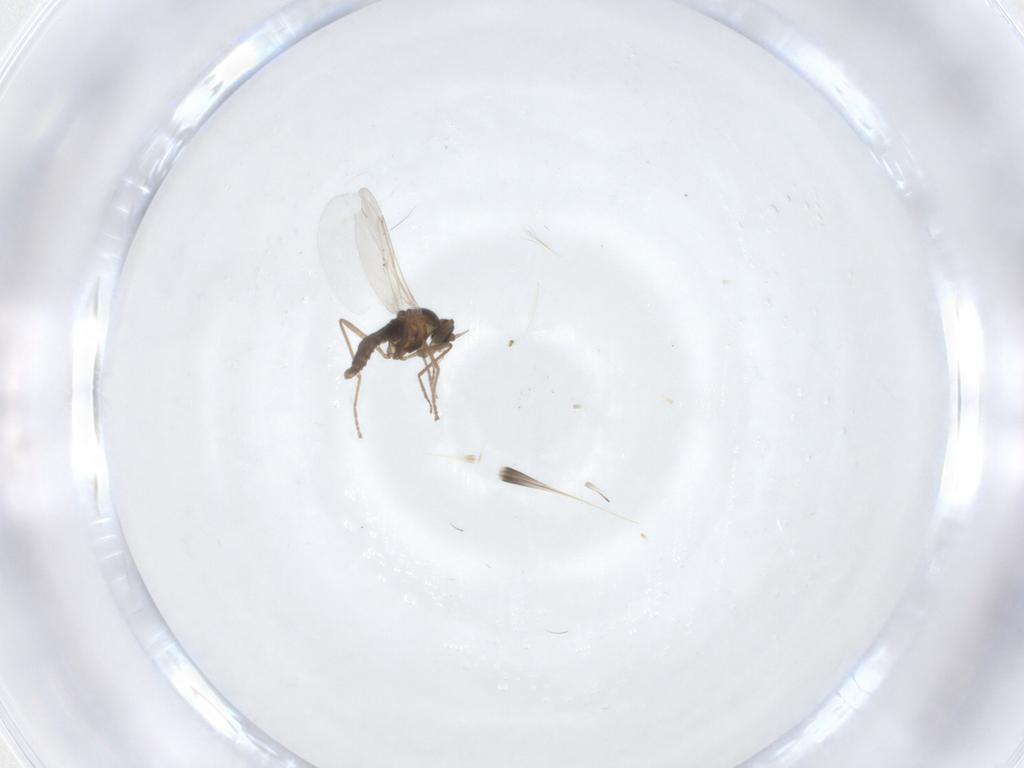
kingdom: Animalia
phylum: Arthropoda
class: Insecta
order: Diptera
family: Cecidomyiidae
